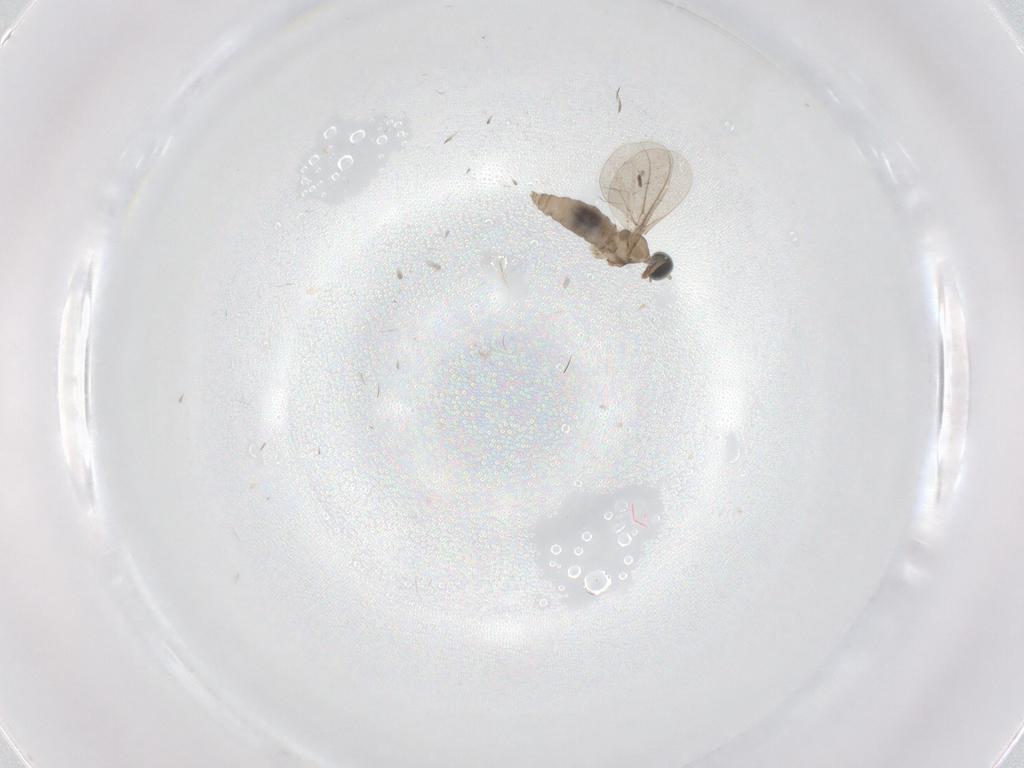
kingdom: Animalia
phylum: Arthropoda
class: Insecta
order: Diptera
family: Cecidomyiidae
